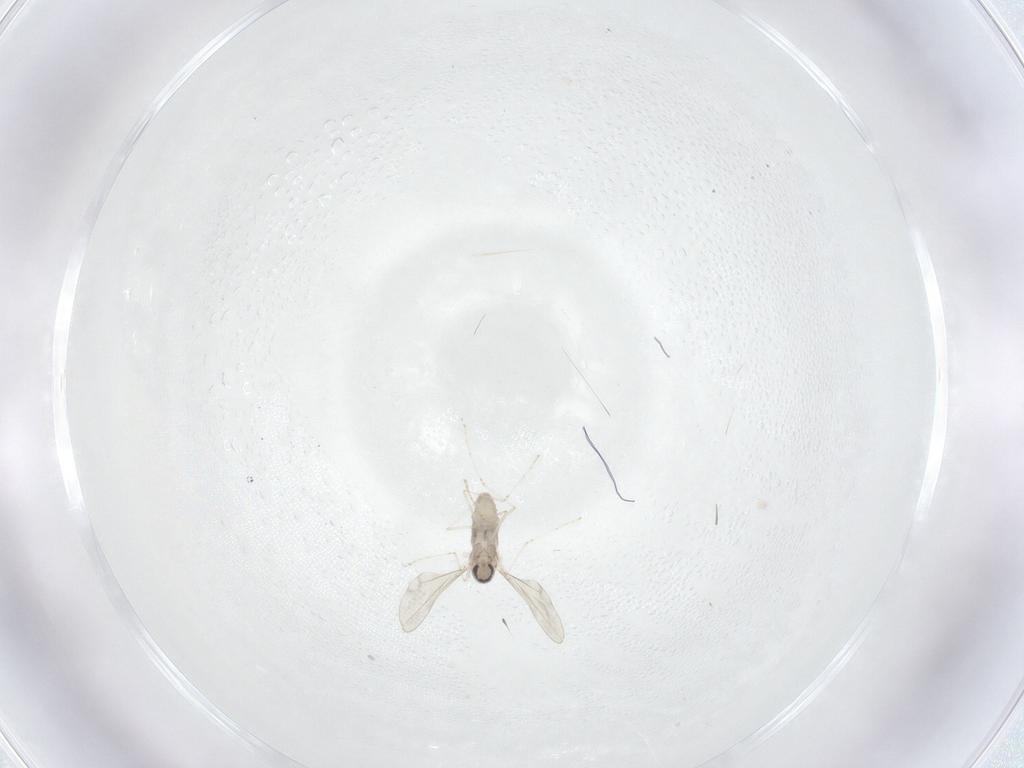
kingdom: Animalia
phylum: Arthropoda
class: Insecta
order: Diptera
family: Cecidomyiidae
